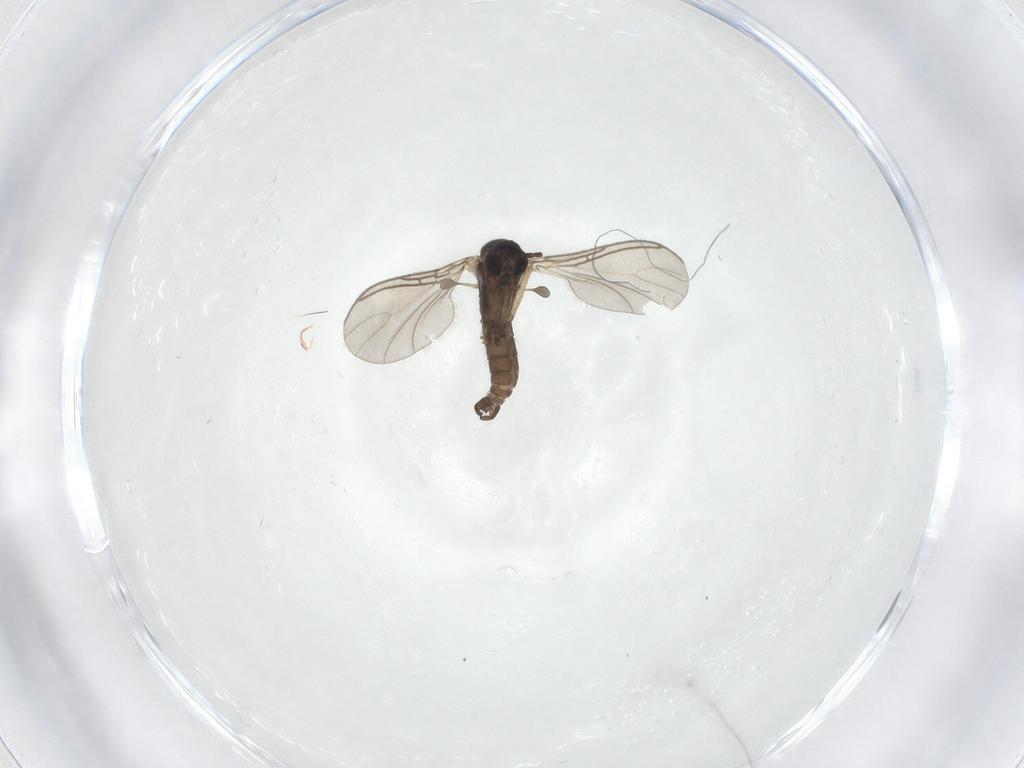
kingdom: Animalia
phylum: Arthropoda
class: Insecta
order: Diptera
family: Sciaridae
